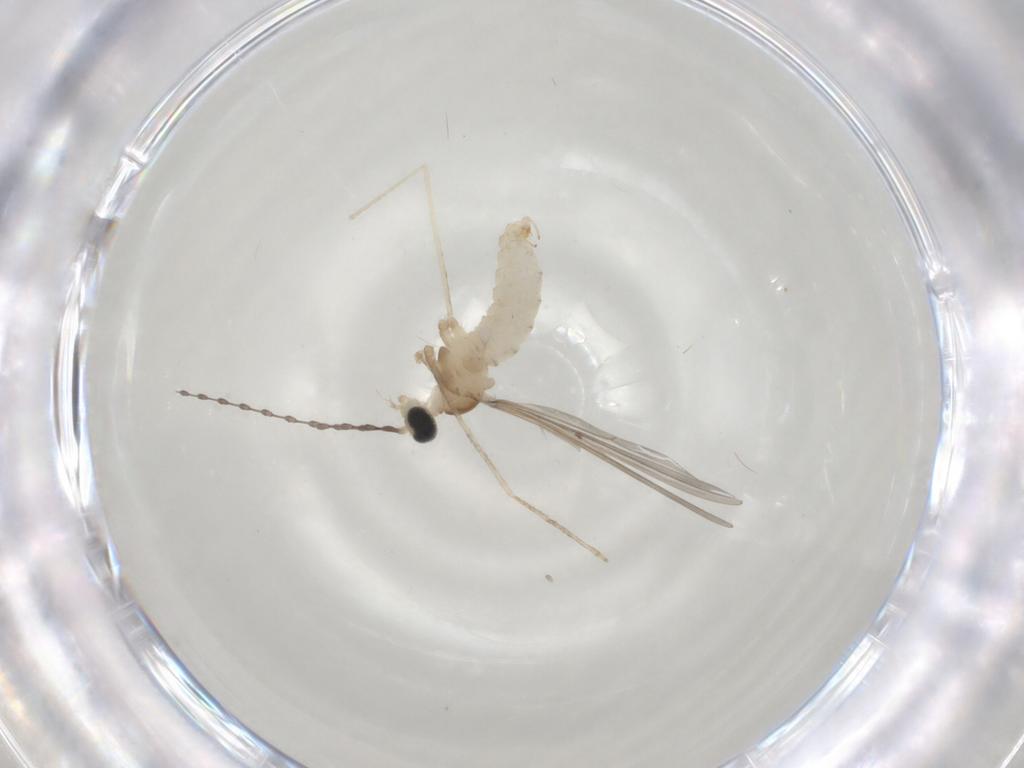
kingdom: Animalia
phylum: Arthropoda
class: Insecta
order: Diptera
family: Cecidomyiidae
